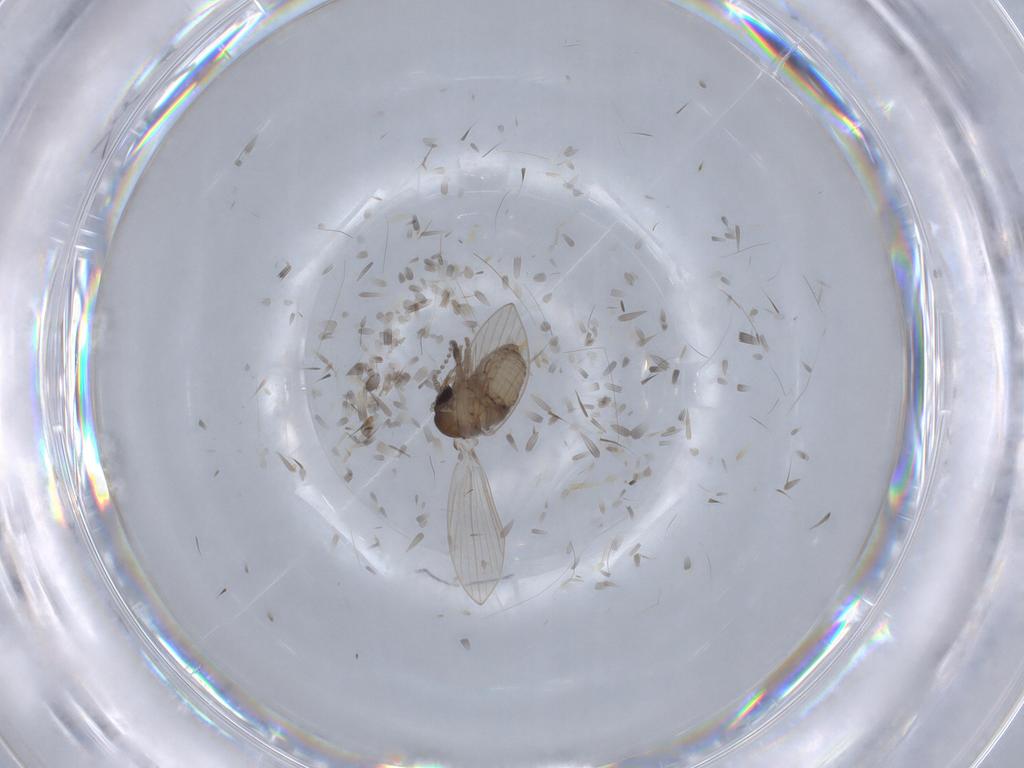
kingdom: Animalia
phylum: Arthropoda
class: Insecta
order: Diptera
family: Psychodidae
